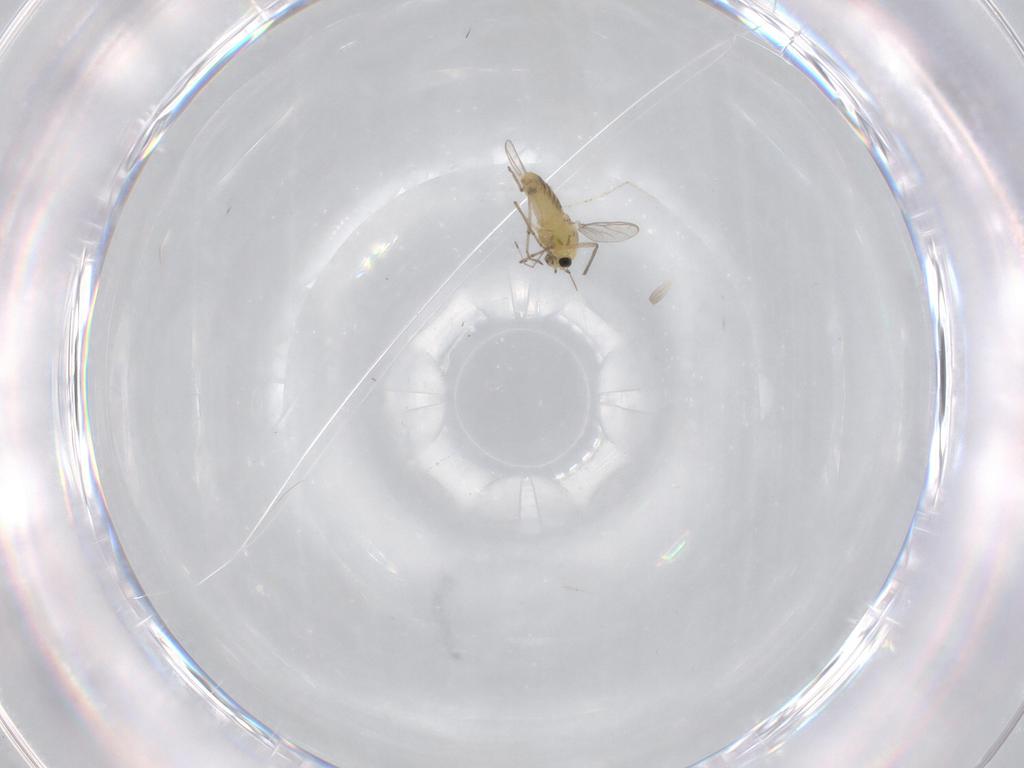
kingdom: Animalia
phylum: Arthropoda
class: Insecta
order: Diptera
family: Chironomidae
